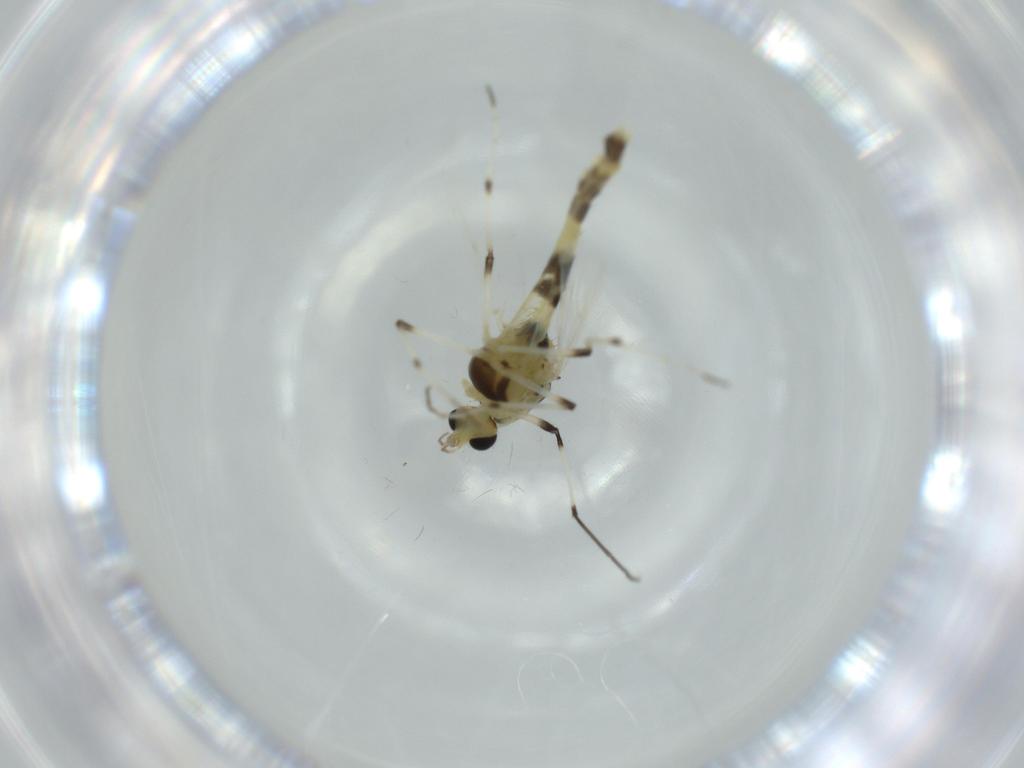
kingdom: Animalia
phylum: Arthropoda
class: Insecta
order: Diptera
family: Chironomidae
